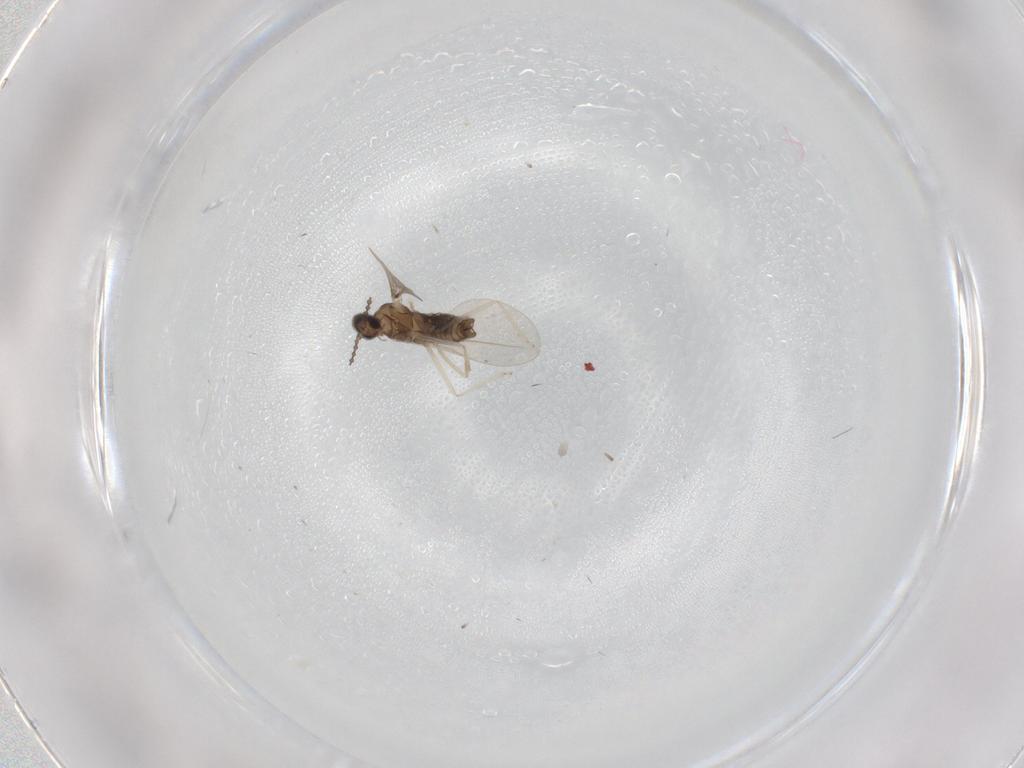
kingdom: Animalia
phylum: Arthropoda
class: Insecta
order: Diptera
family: Cecidomyiidae
